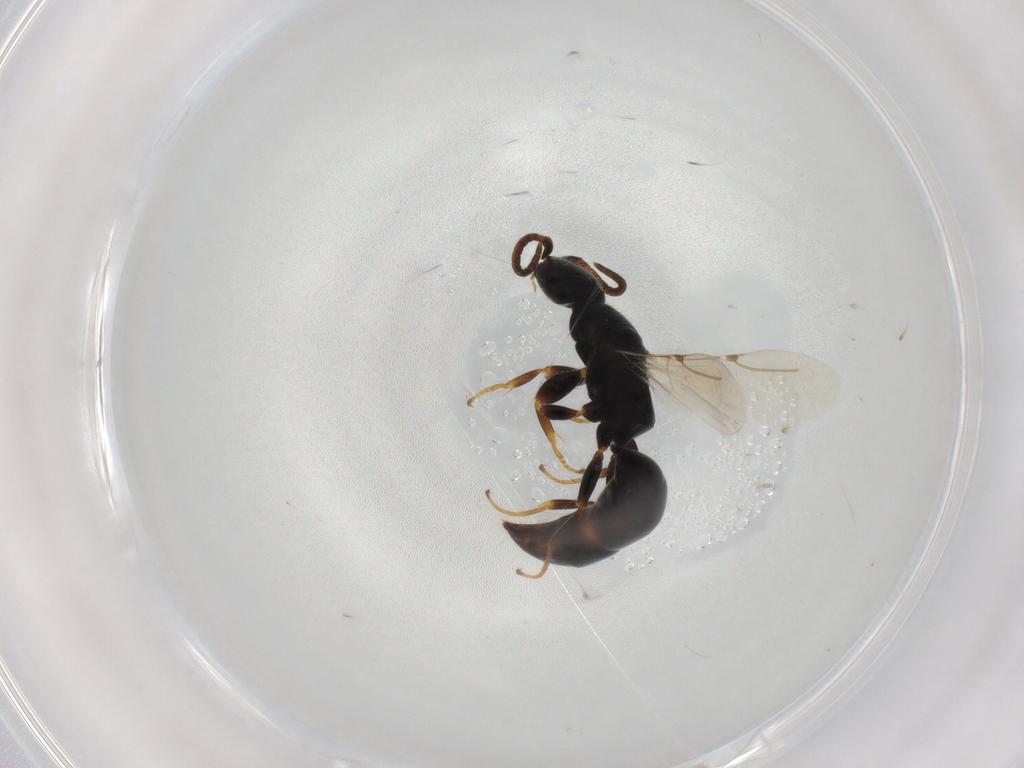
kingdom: Animalia
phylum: Arthropoda
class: Insecta
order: Hymenoptera
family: Bethylidae
